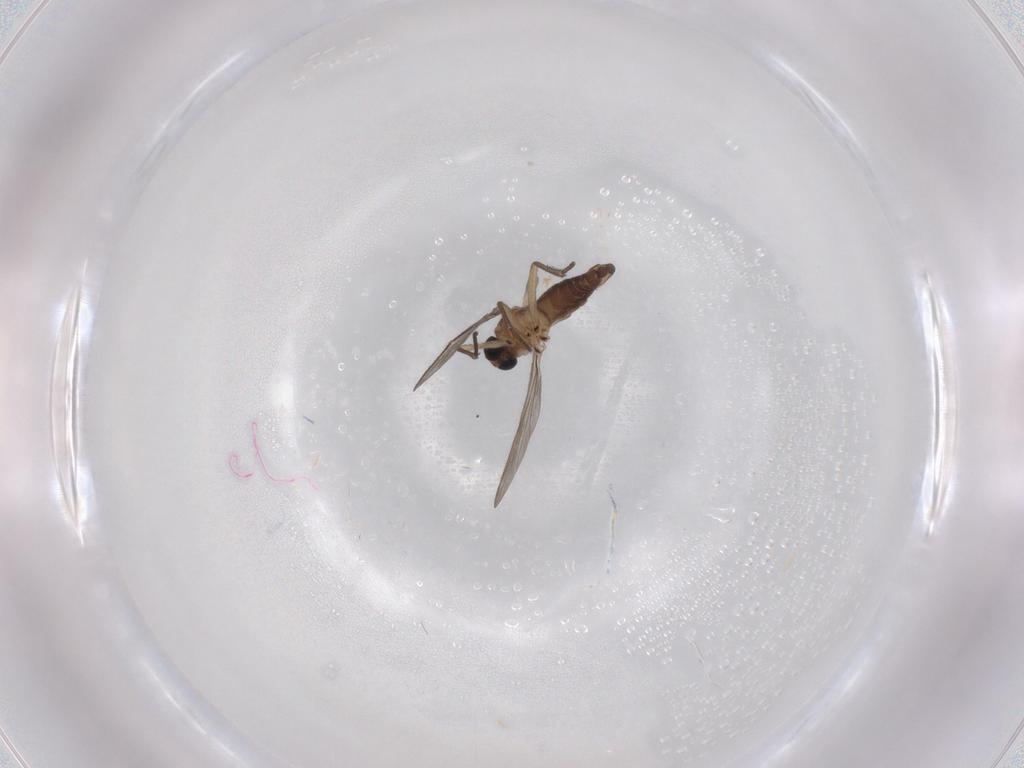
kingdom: Animalia
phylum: Arthropoda
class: Insecta
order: Diptera
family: Sciaridae
